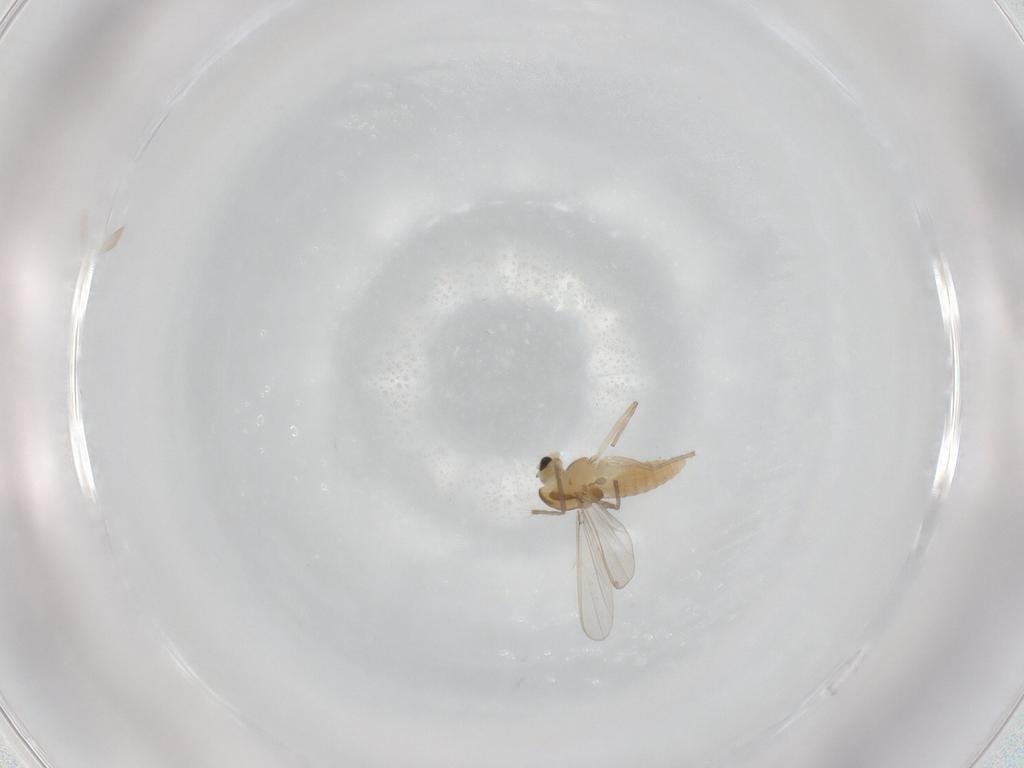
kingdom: Animalia
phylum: Arthropoda
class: Insecta
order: Diptera
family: Chironomidae
